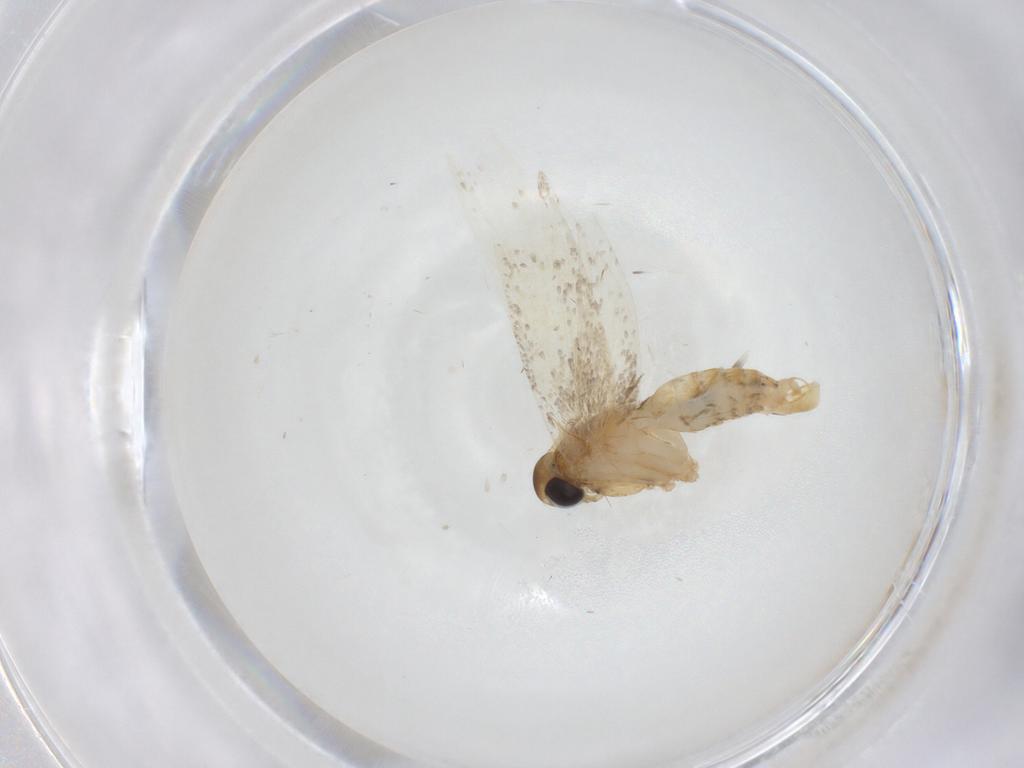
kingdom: Animalia
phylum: Arthropoda
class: Insecta
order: Lepidoptera
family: Oecophoridae
